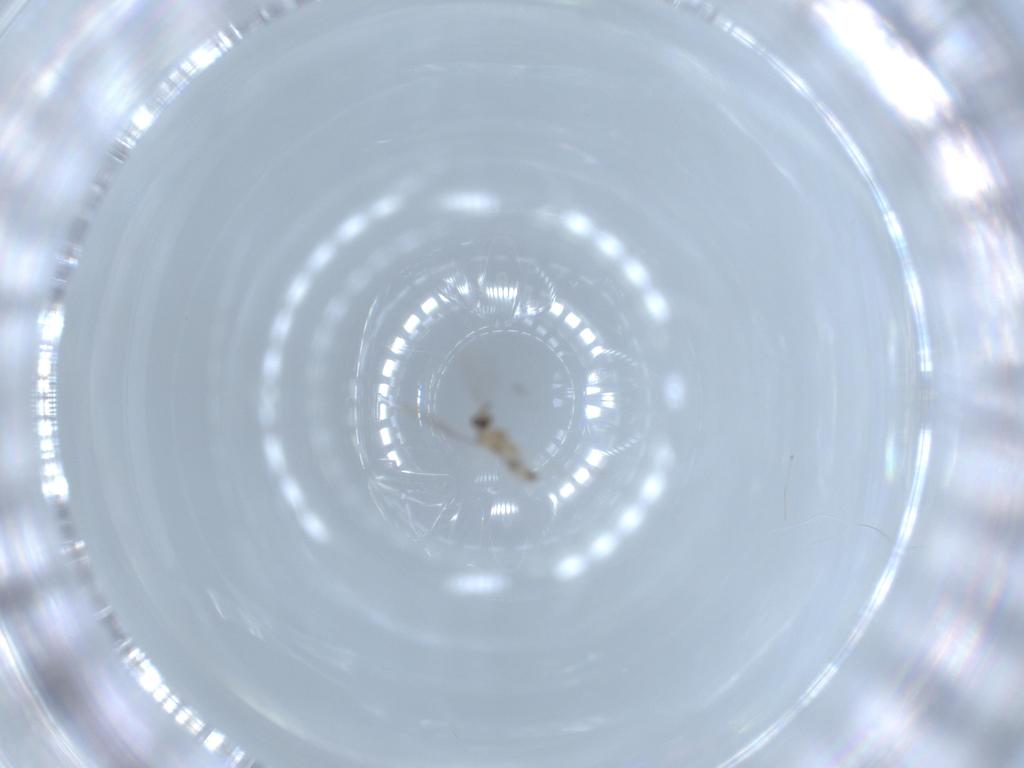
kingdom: Animalia
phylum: Arthropoda
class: Insecta
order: Diptera
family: Cecidomyiidae
